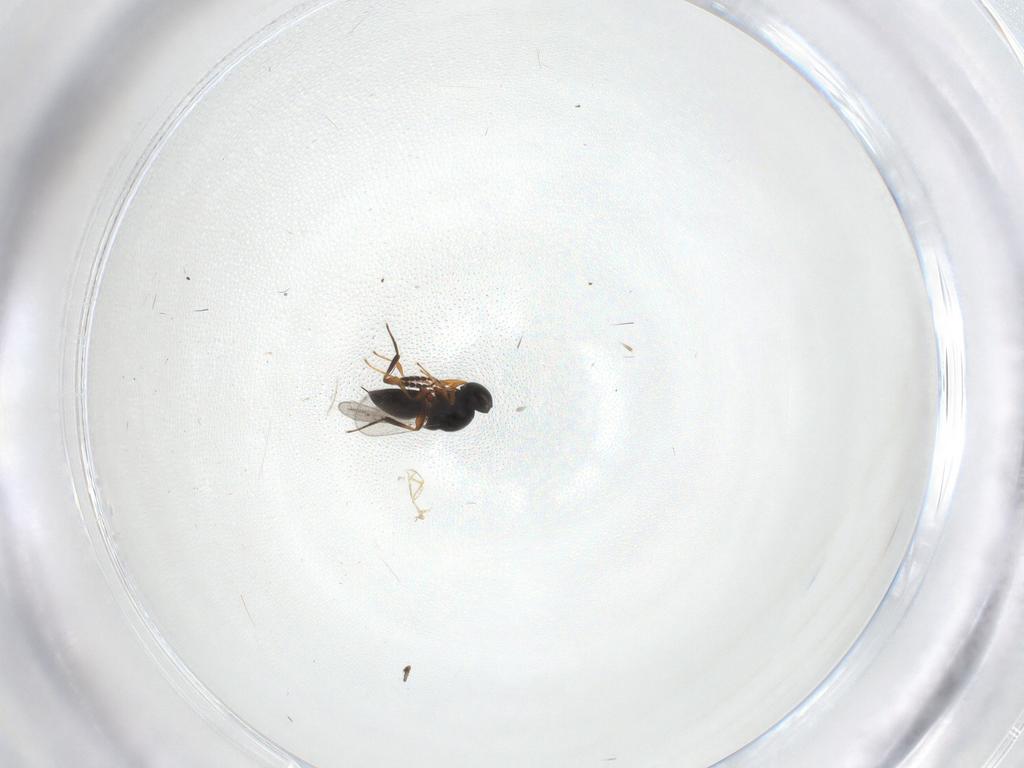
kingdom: Animalia
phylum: Arthropoda
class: Insecta
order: Hymenoptera
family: Platygastridae
